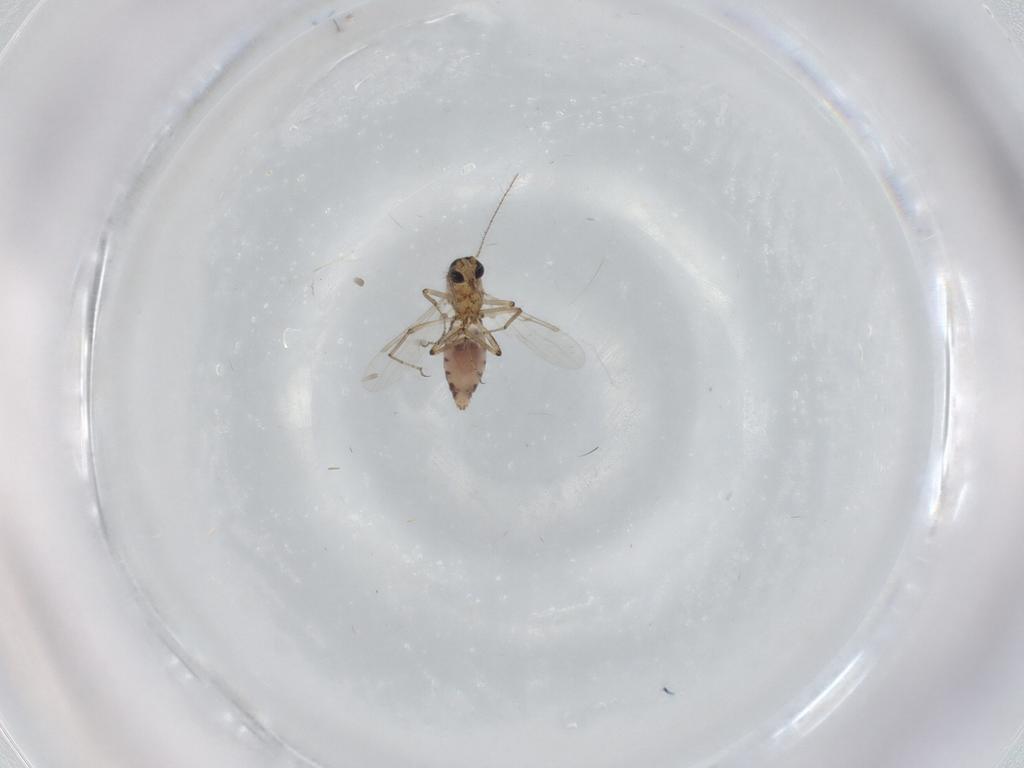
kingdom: Animalia
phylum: Arthropoda
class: Insecta
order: Diptera
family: Ceratopogonidae
